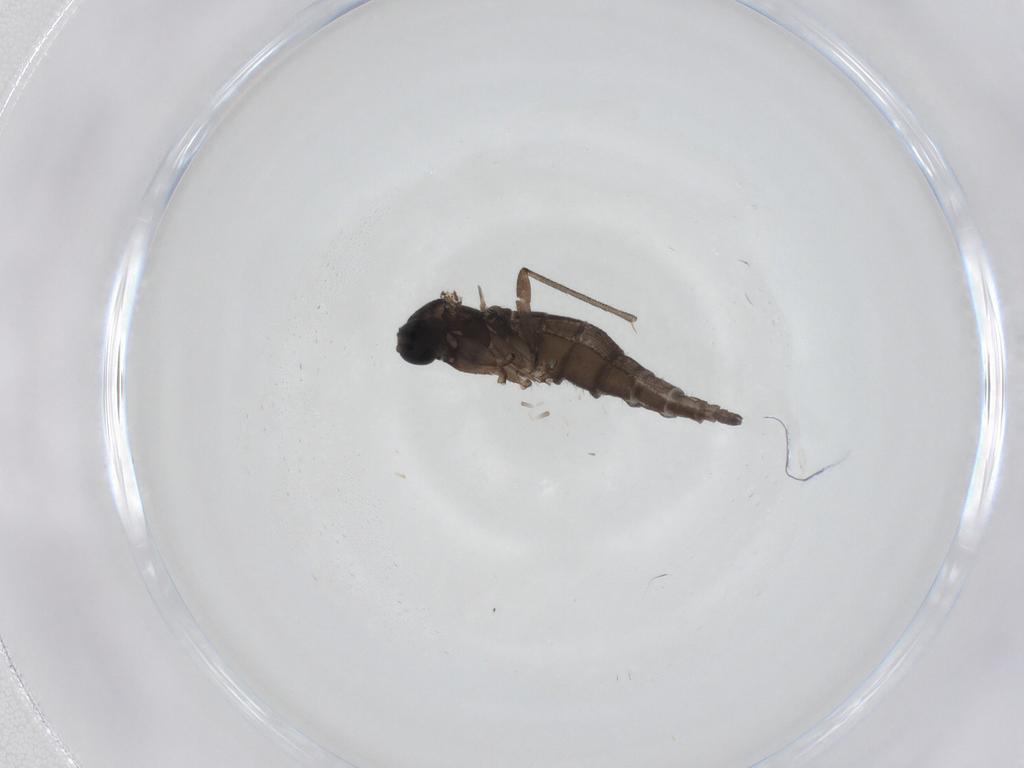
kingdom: Animalia
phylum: Arthropoda
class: Insecta
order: Diptera
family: Sciaridae
